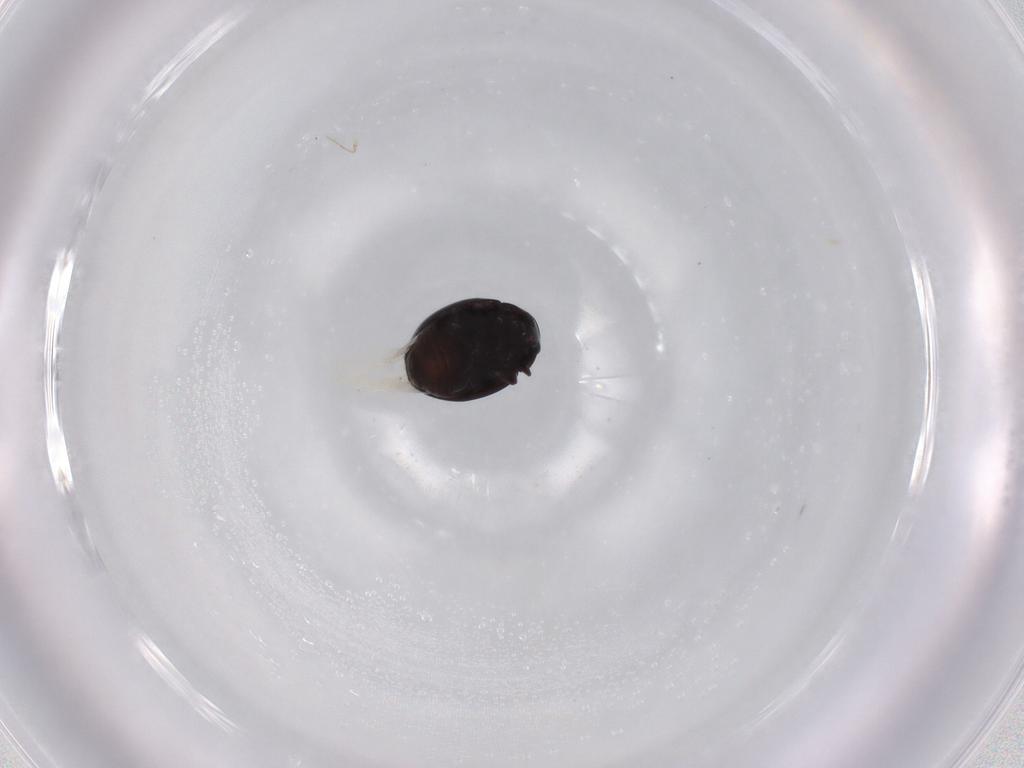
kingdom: Animalia
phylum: Arthropoda
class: Insecta
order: Coleoptera
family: Coccinellidae
